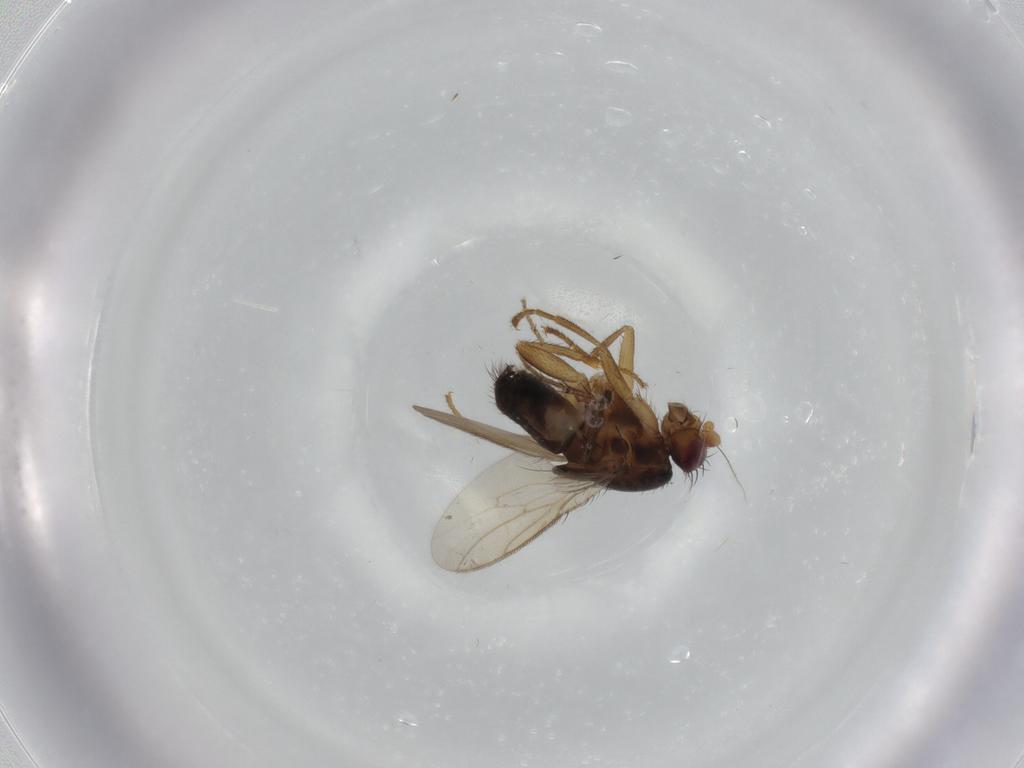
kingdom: Animalia
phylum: Arthropoda
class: Insecta
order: Diptera
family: Sphaeroceridae
